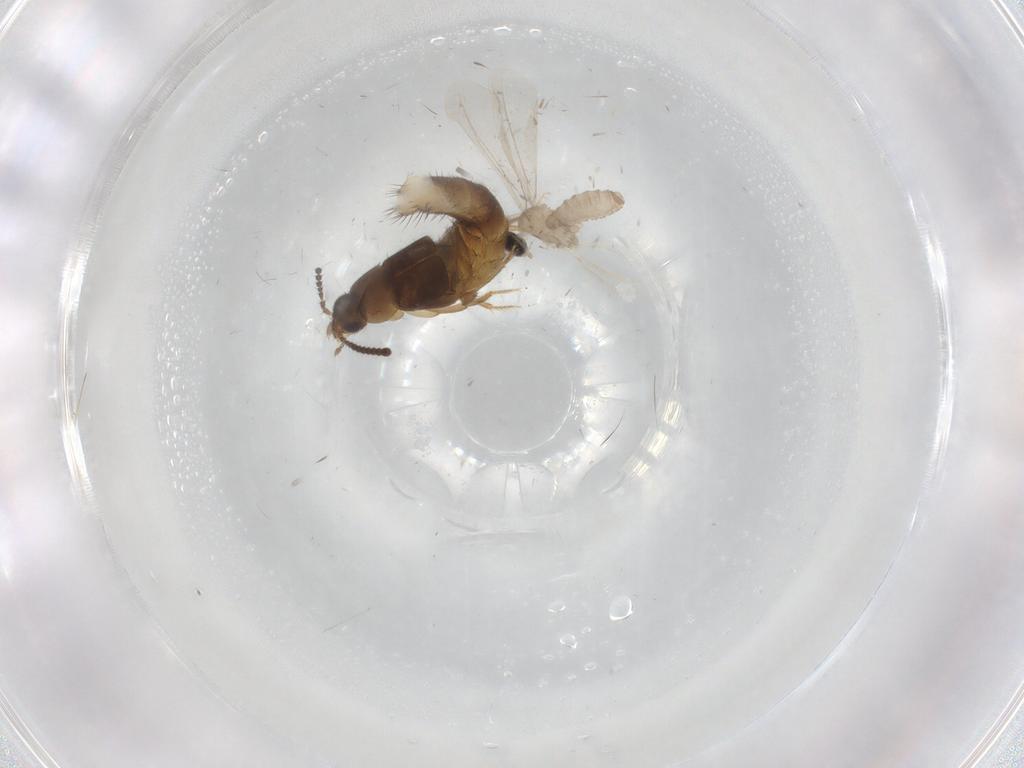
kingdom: Animalia
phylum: Arthropoda
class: Insecta
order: Diptera
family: Cecidomyiidae
